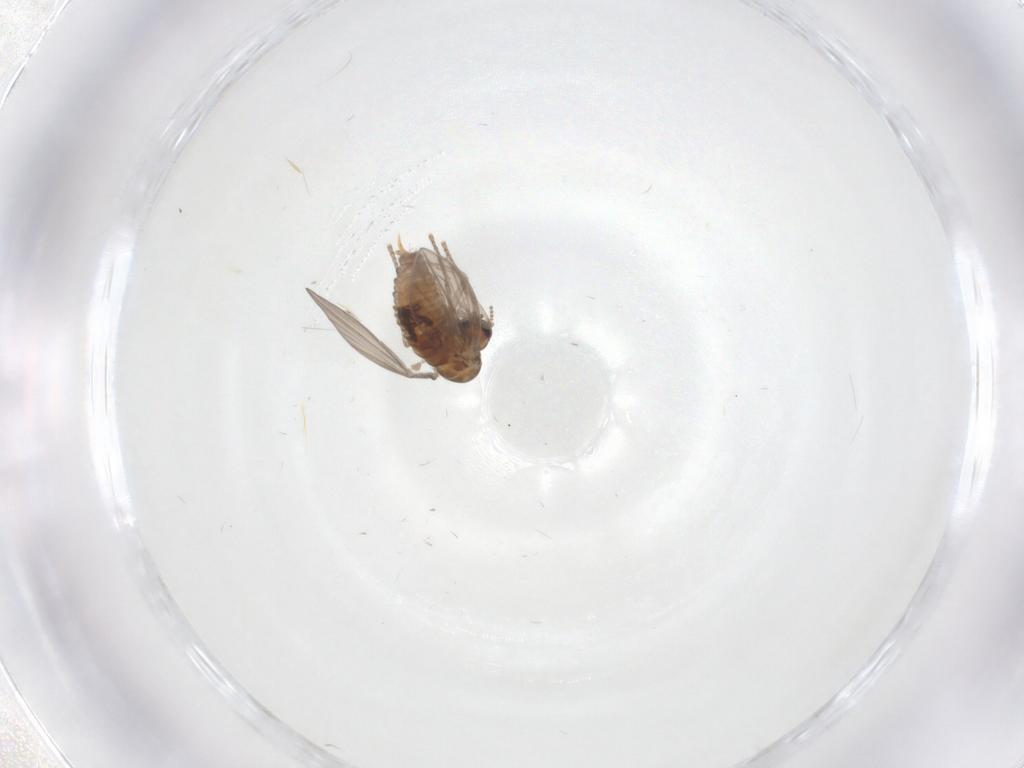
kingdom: Animalia
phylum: Arthropoda
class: Insecta
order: Diptera
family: Psychodidae
